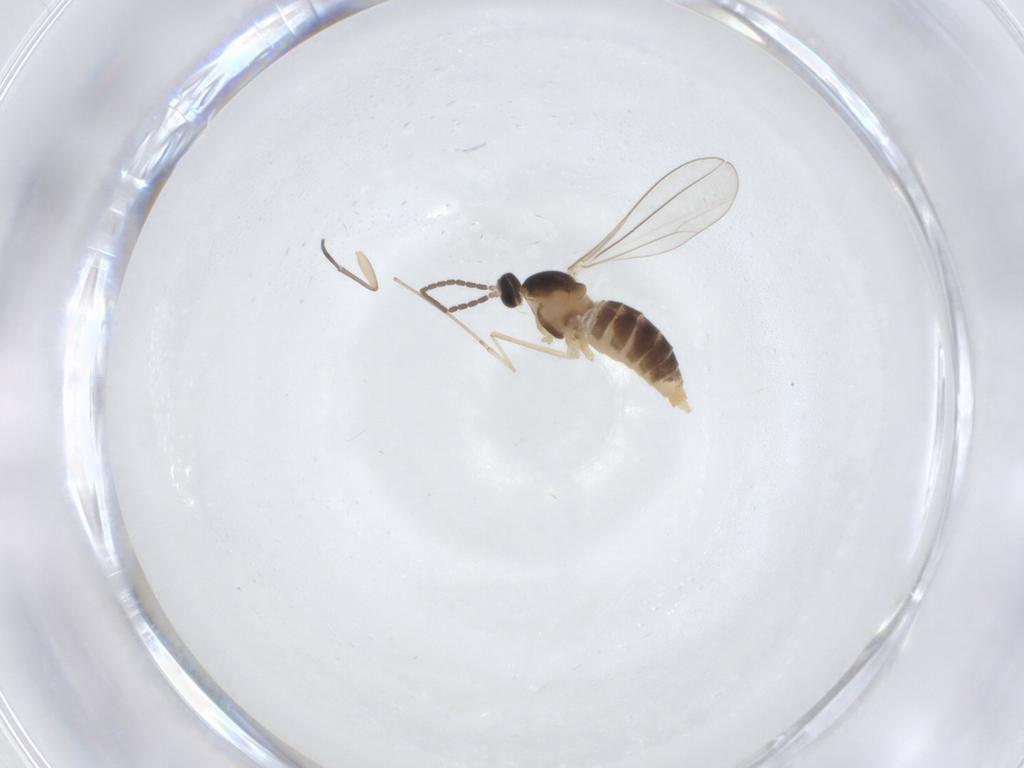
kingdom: Animalia
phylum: Arthropoda
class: Insecta
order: Diptera
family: Cecidomyiidae
